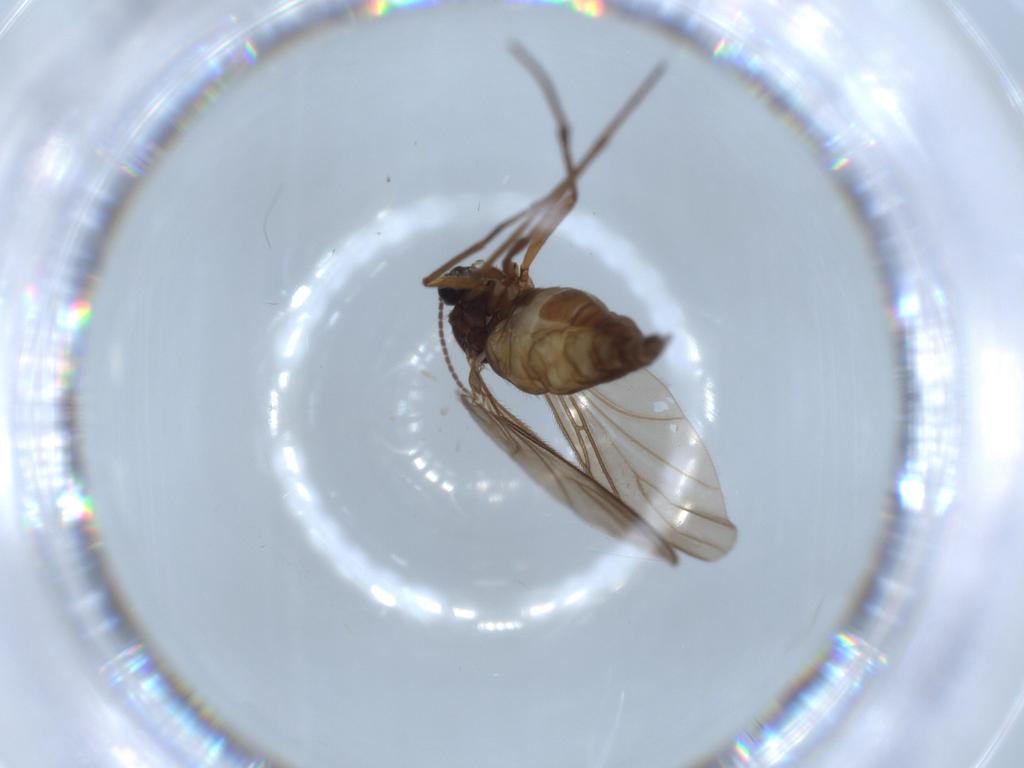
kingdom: Animalia
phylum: Arthropoda
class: Insecta
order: Diptera
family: Sciaridae
